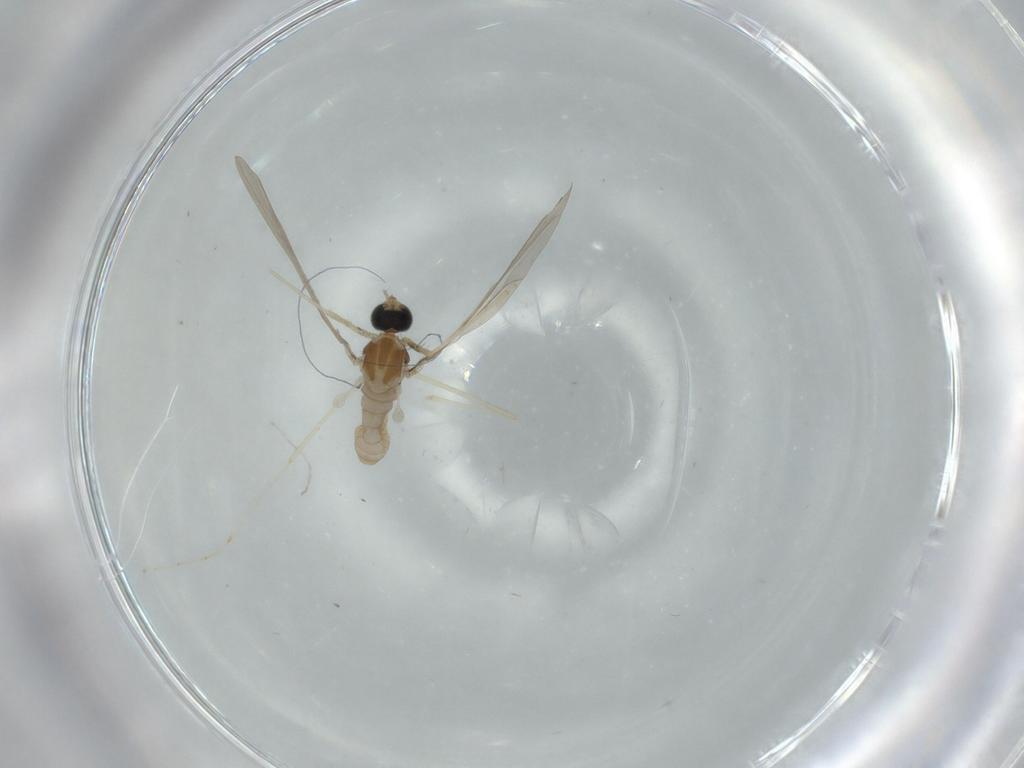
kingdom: Animalia
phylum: Arthropoda
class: Insecta
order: Diptera
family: Cecidomyiidae
